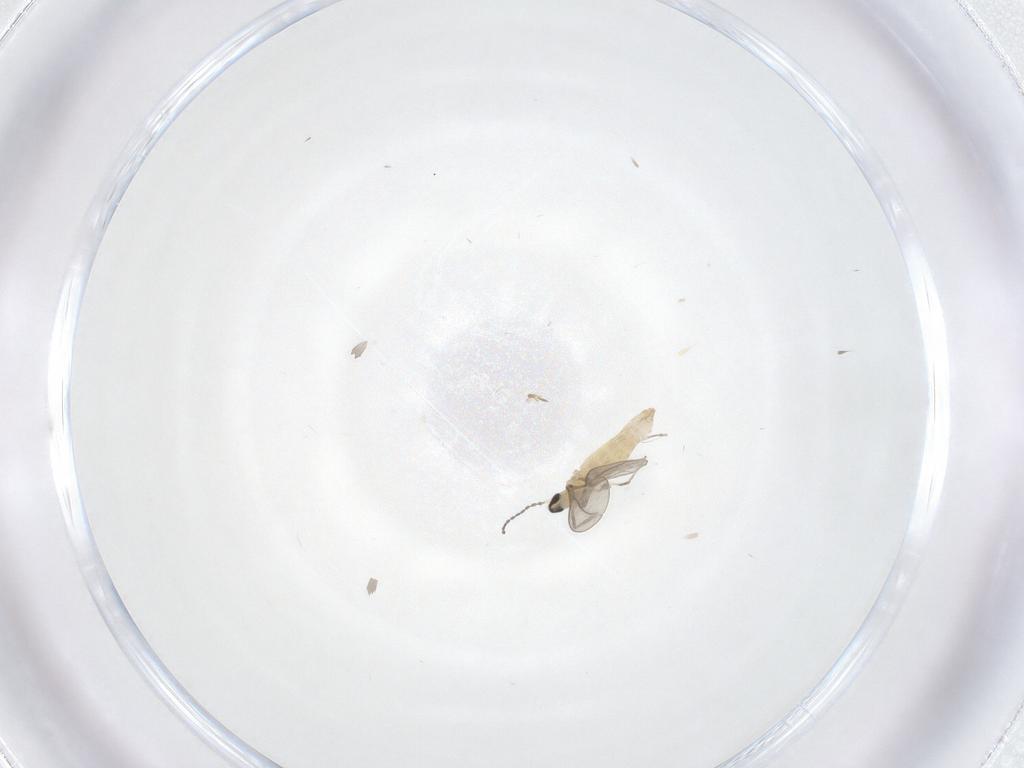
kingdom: Animalia
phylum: Arthropoda
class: Insecta
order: Diptera
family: Cecidomyiidae
